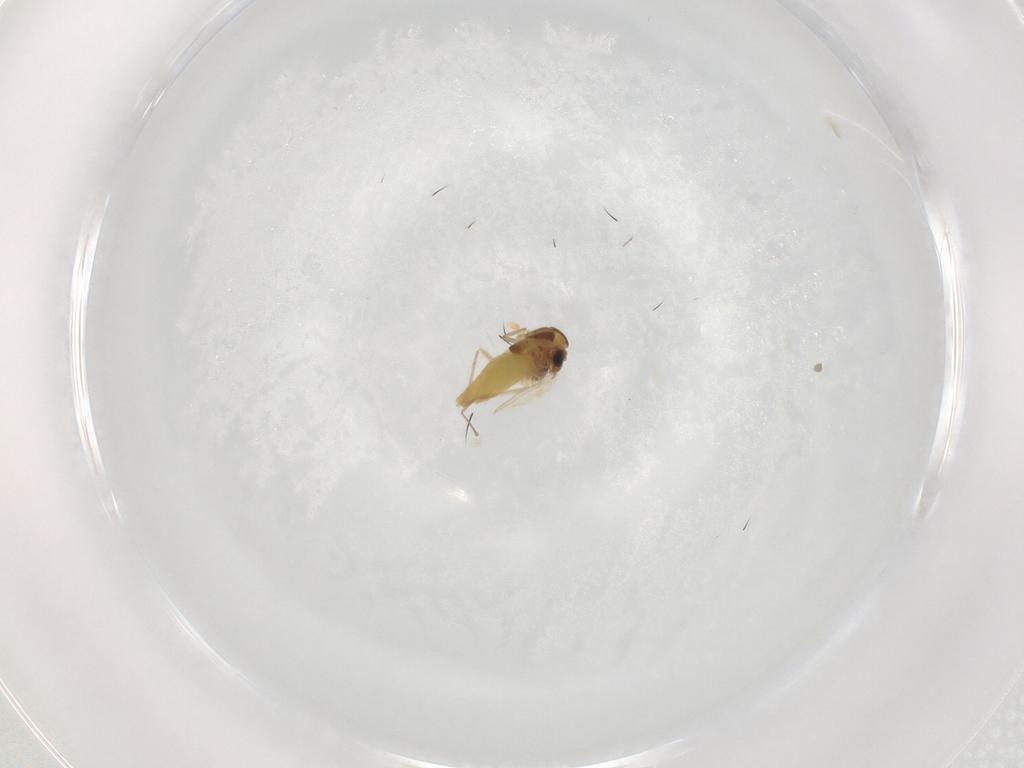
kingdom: Animalia
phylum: Arthropoda
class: Insecta
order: Diptera
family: Chironomidae
